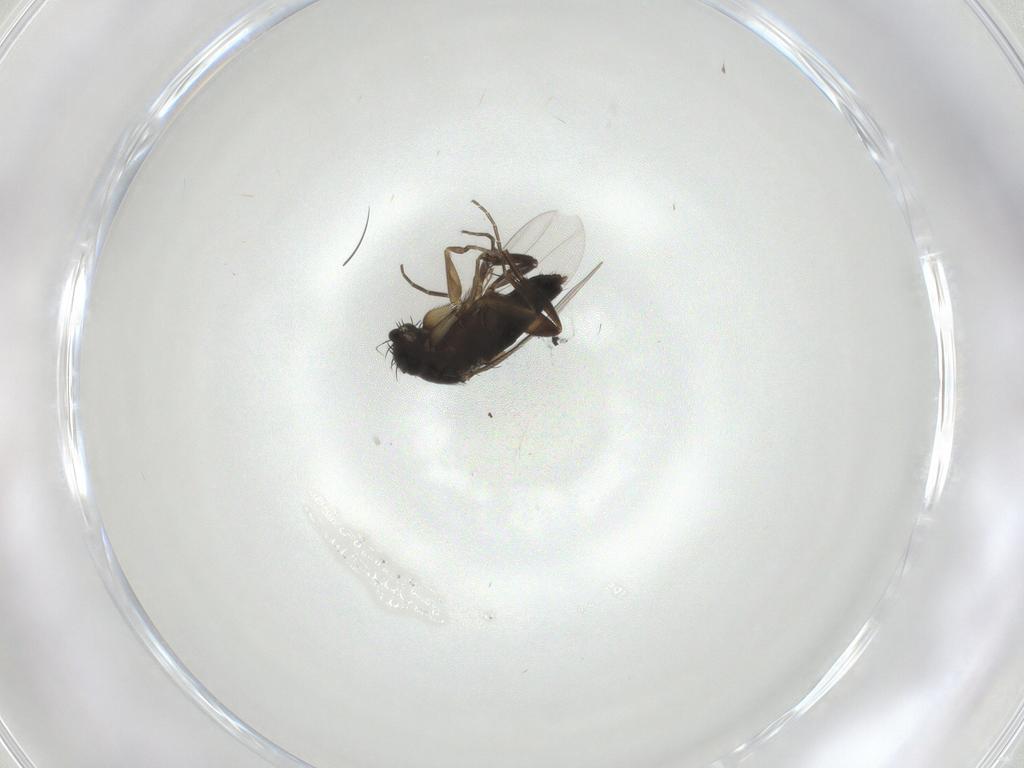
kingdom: Animalia
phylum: Arthropoda
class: Insecta
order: Diptera
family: Phoridae
